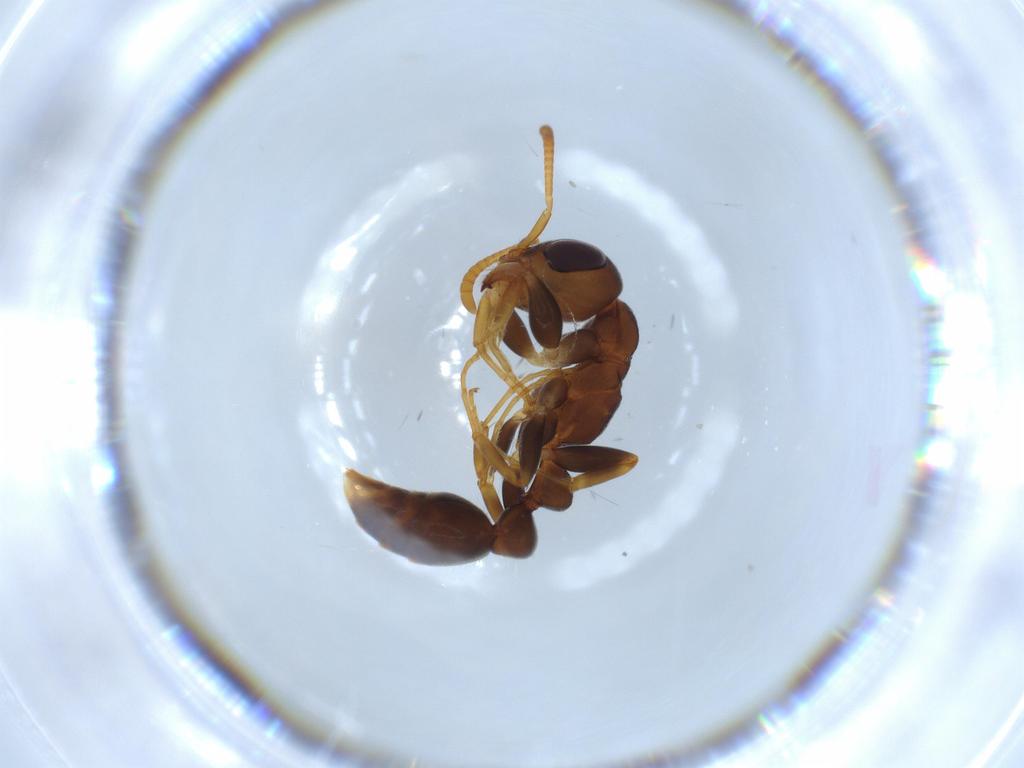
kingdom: Animalia
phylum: Arthropoda
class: Insecta
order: Hymenoptera
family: Formicidae
